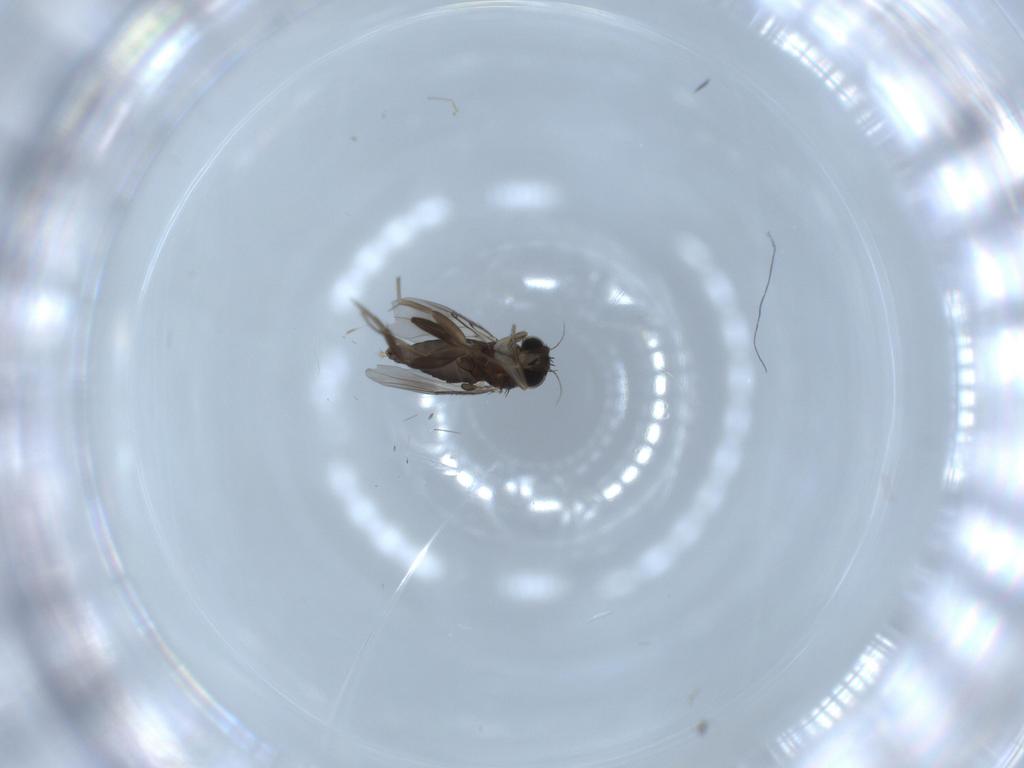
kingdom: Animalia
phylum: Arthropoda
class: Insecta
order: Diptera
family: Phoridae
